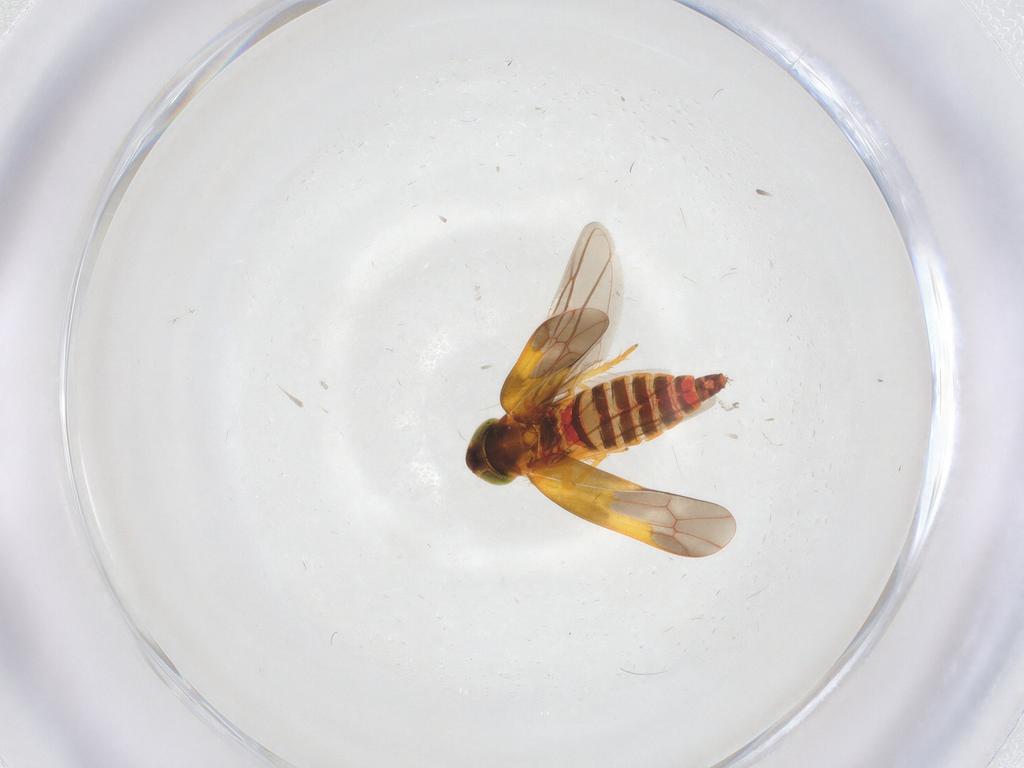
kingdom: Animalia
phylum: Arthropoda
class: Insecta
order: Hemiptera
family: Cicadellidae
